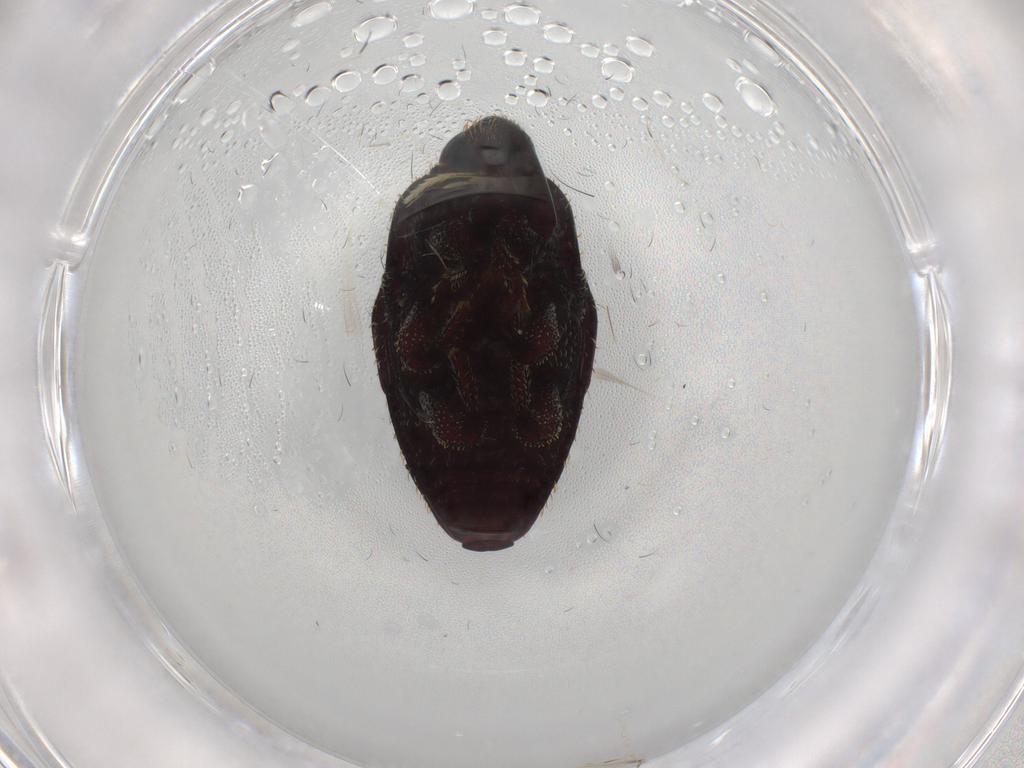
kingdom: Animalia
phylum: Arthropoda
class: Insecta
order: Coleoptera
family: Curculionidae
